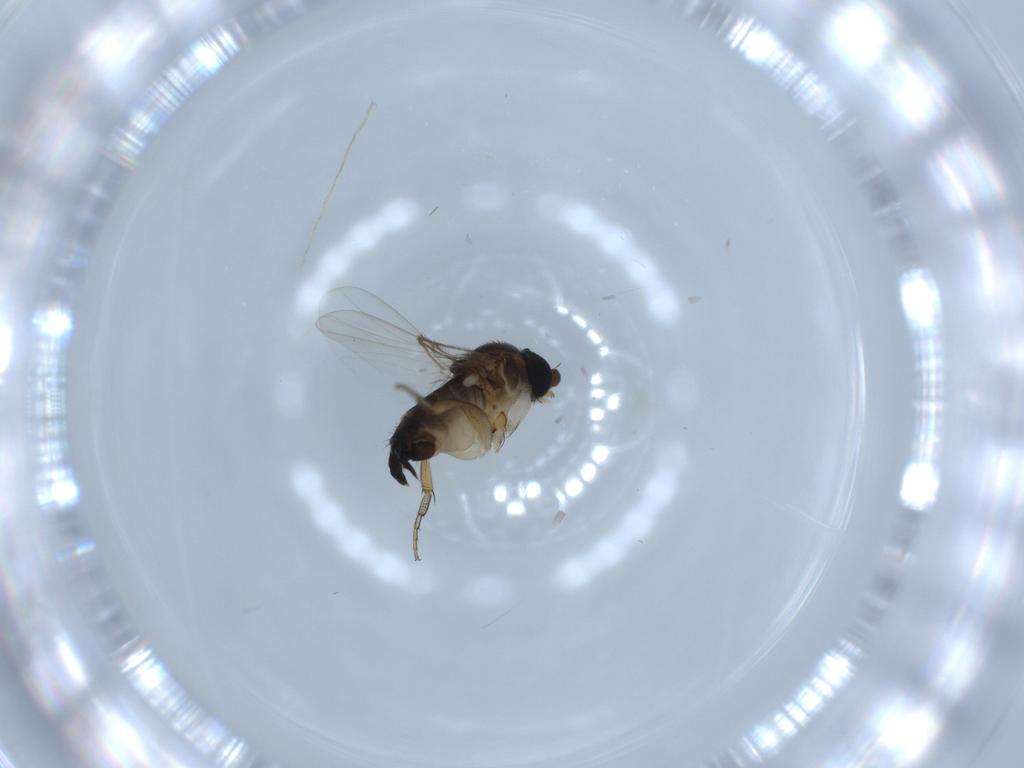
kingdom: Animalia
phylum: Arthropoda
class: Insecta
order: Diptera
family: Phoridae
